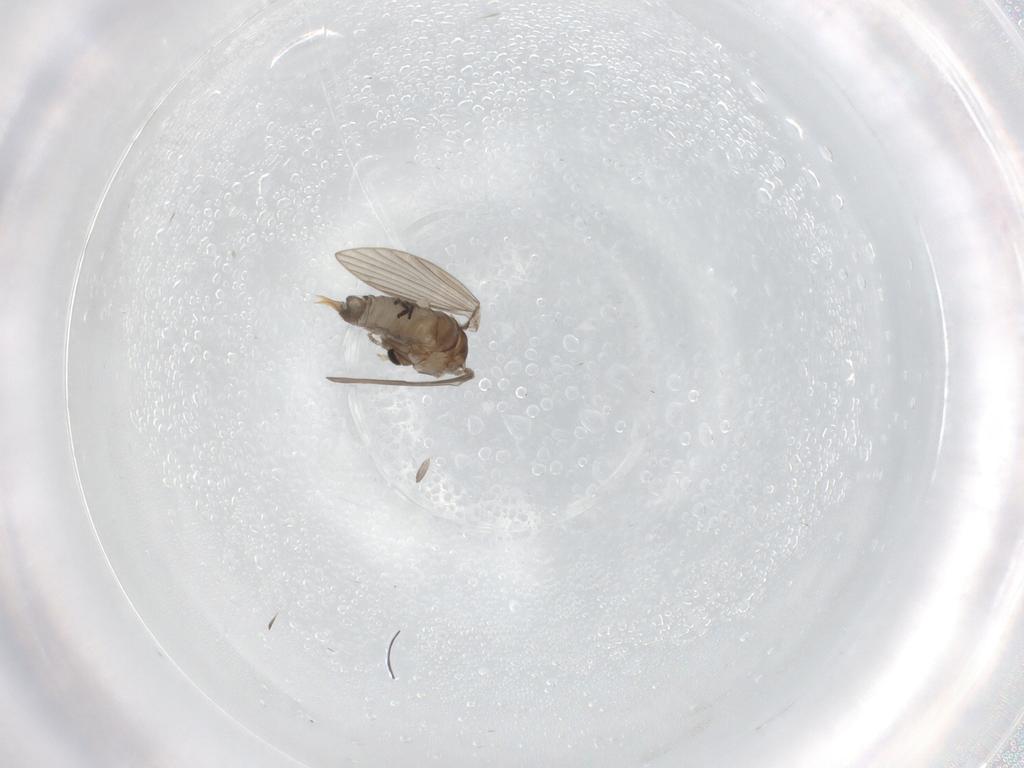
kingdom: Animalia
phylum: Arthropoda
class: Insecta
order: Diptera
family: Psychodidae
